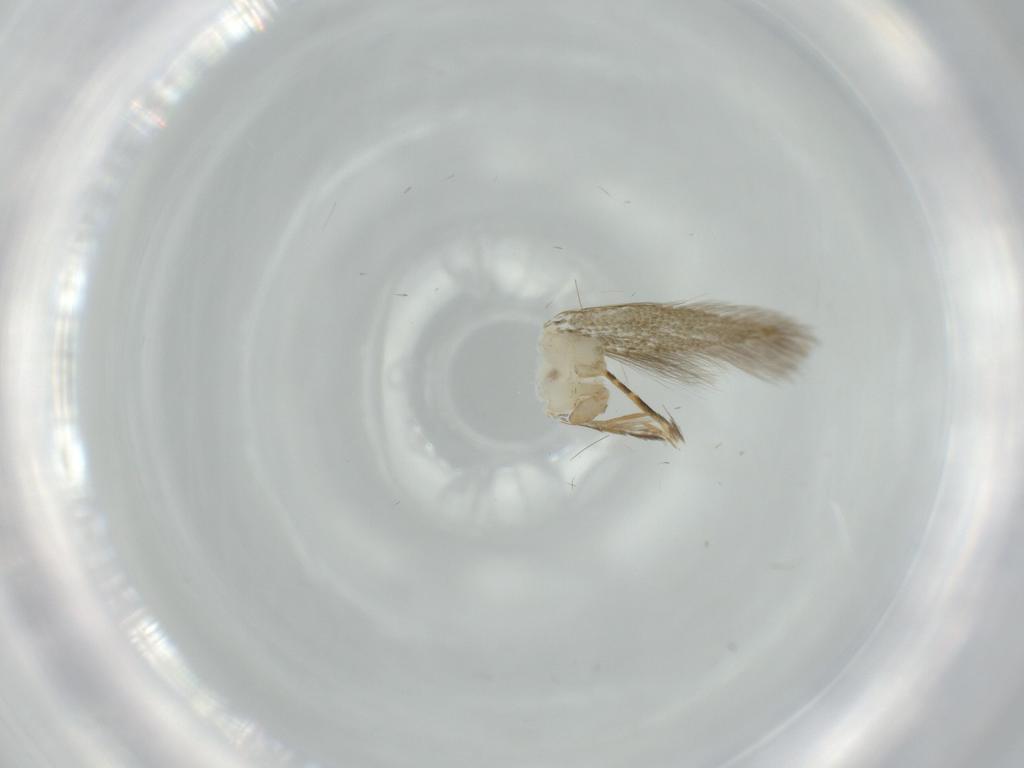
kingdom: Animalia
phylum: Arthropoda
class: Insecta
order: Lepidoptera
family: Tineidae
